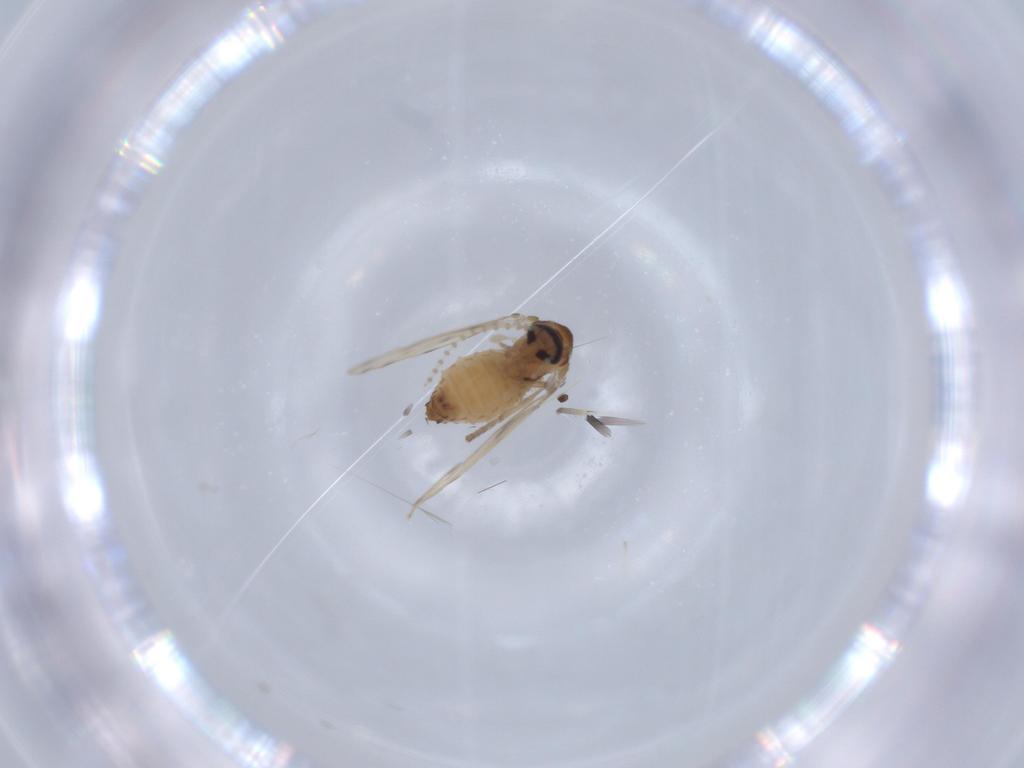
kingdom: Animalia
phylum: Arthropoda
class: Insecta
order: Diptera
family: Psychodidae
